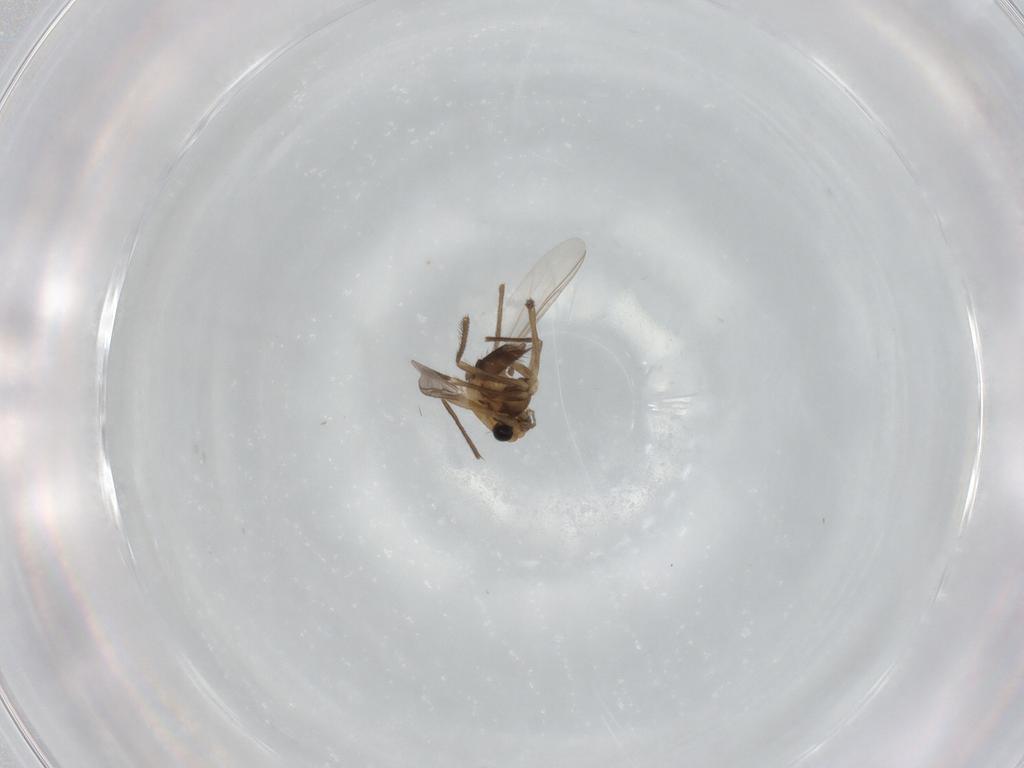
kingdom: Animalia
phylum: Arthropoda
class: Insecta
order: Diptera
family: Chironomidae
